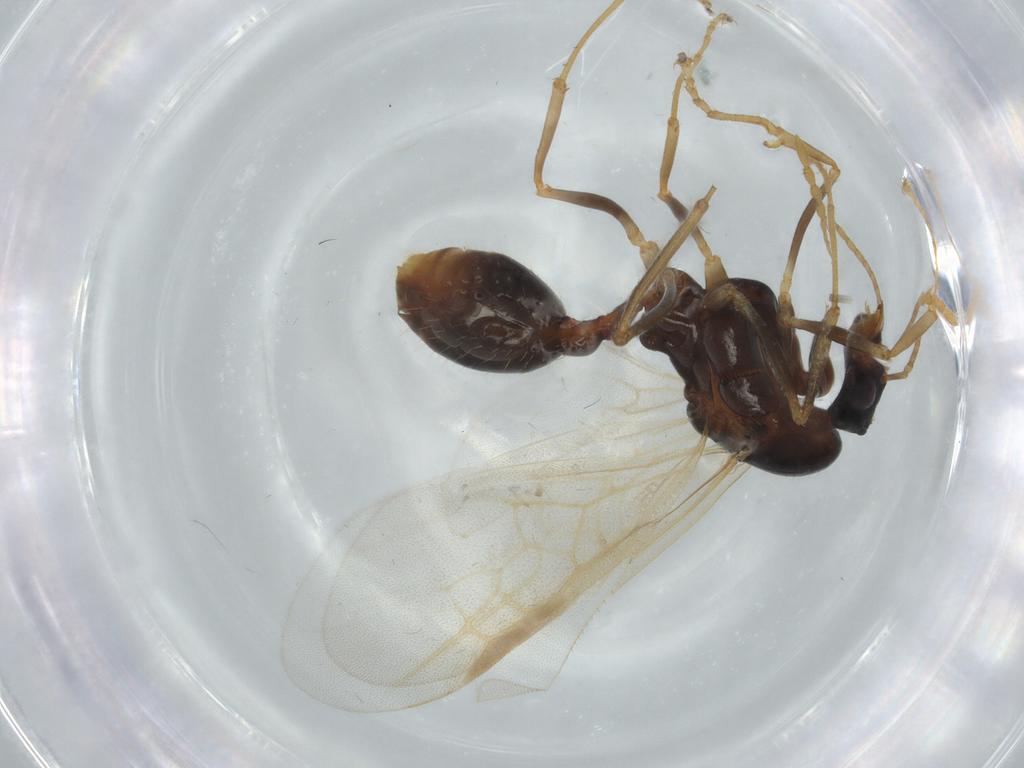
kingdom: Animalia
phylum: Arthropoda
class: Insecta
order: Hymenoptera
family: Formicidae
